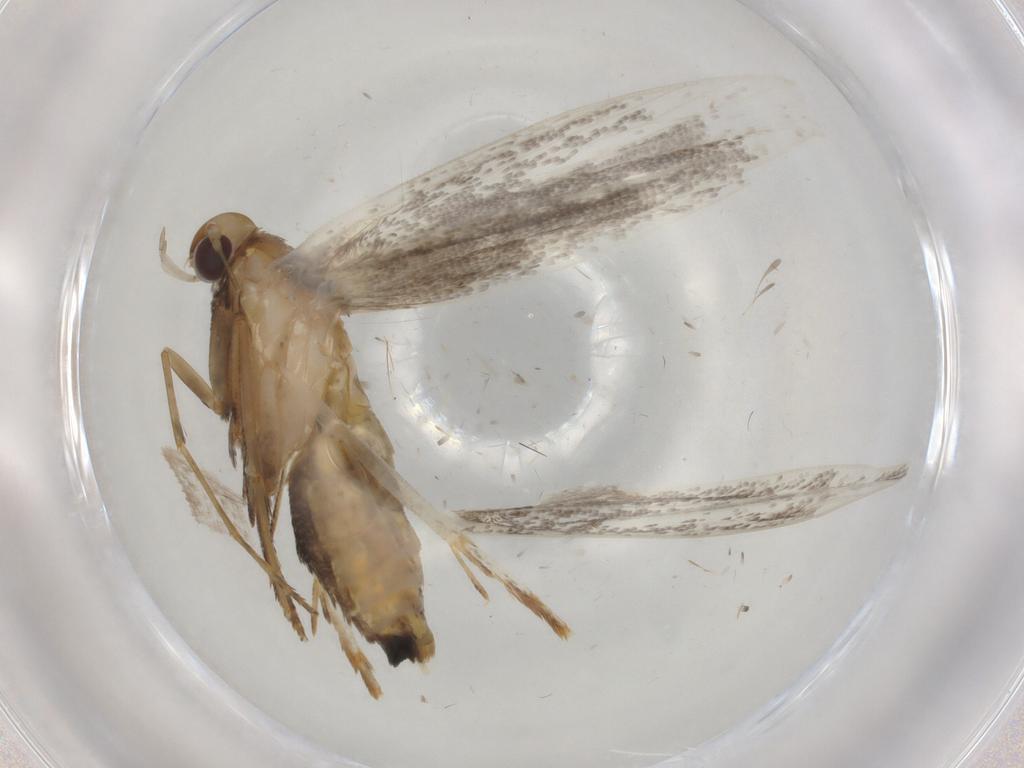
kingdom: Animalia
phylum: Arthropoda
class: Insecta
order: Lepidoptera
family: Epermeniidae
